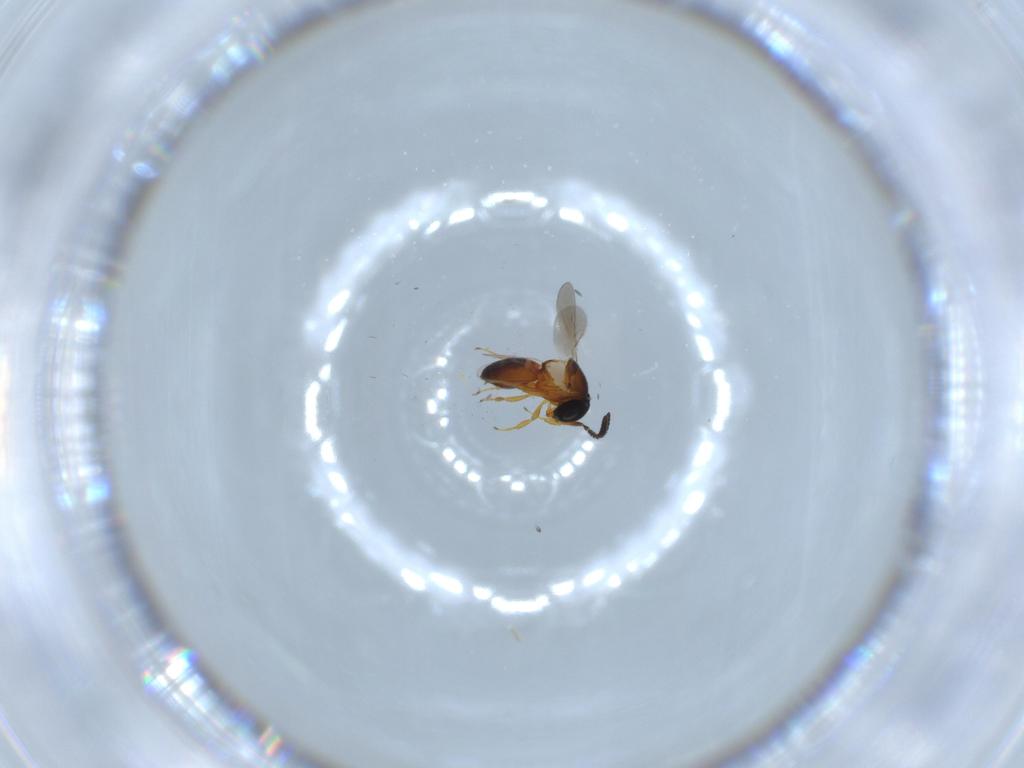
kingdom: Animalia
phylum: Arthropoda
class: Insecta
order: Hymenoptera
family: Scelionidae
